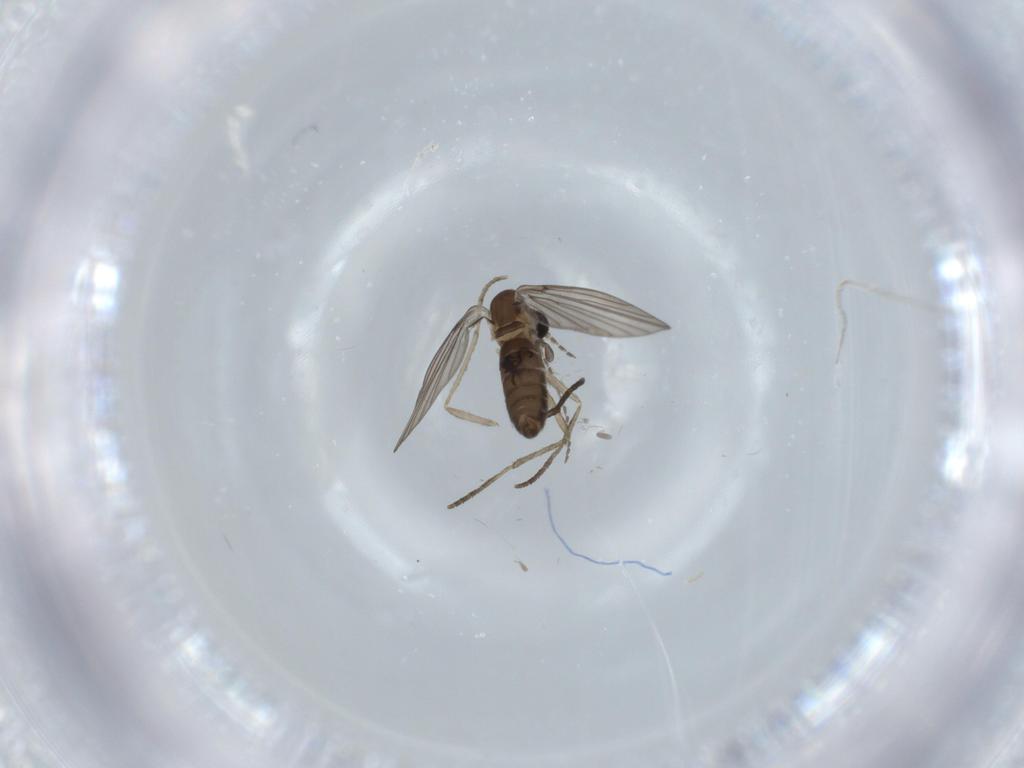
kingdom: Animalia
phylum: Arthropoda
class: Insecta
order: Diptera
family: Psychodidae
